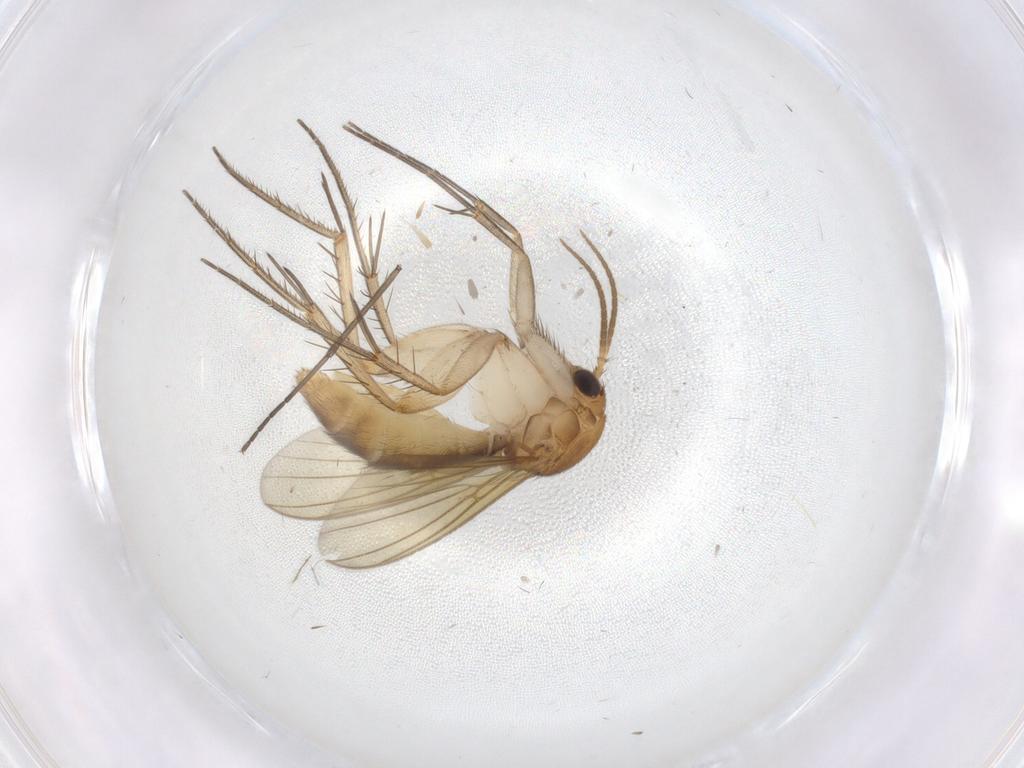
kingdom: Animalia
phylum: Arthropoda
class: Insecta
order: Diptera
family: Mycetophilidae
